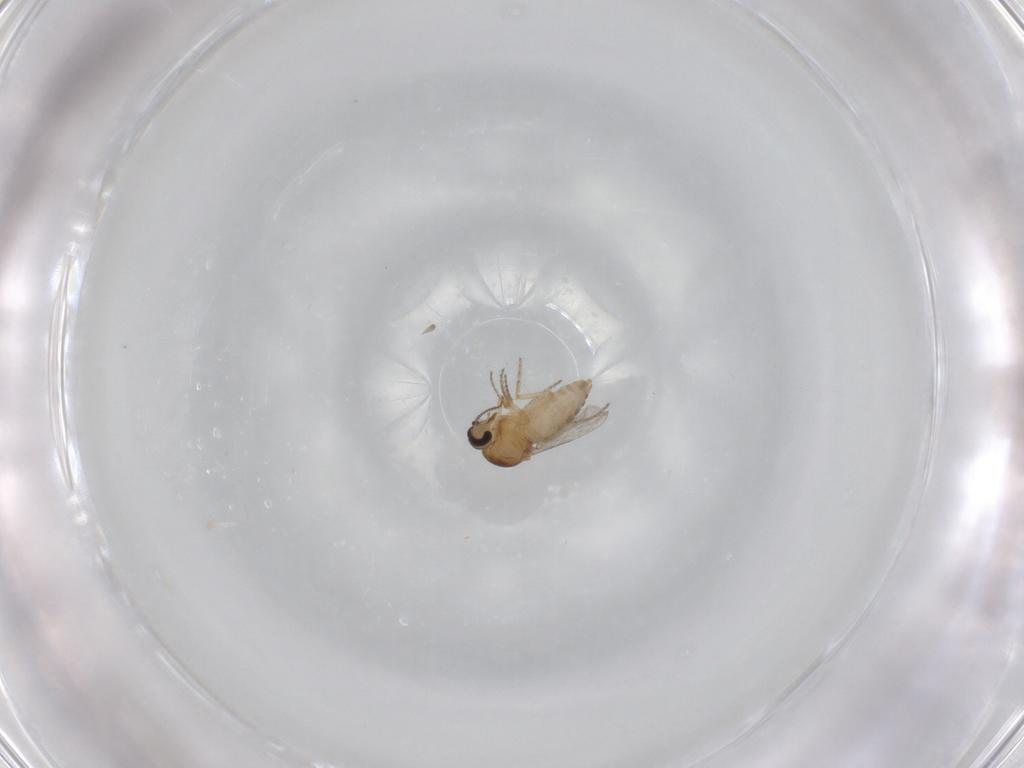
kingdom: Animalia
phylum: Arthropoda
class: Insecta
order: Diptera
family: Ceratopogonidae
